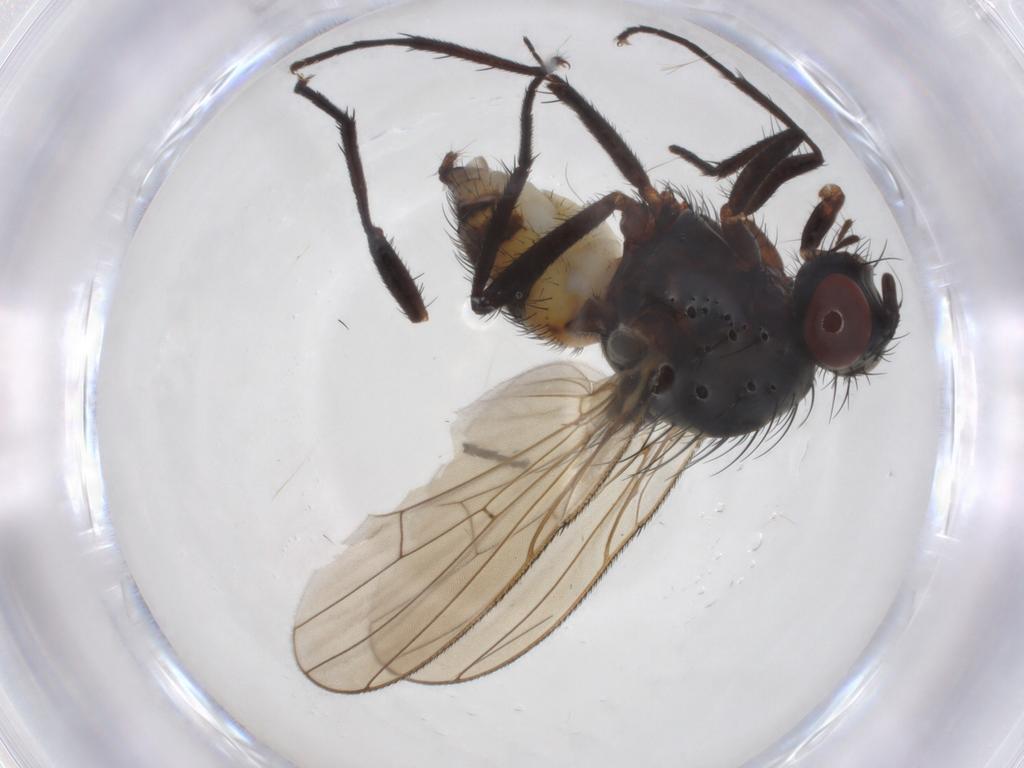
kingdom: Animalia
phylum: Arthropoda
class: Insecta
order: Diptera
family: Anthomyiidae
